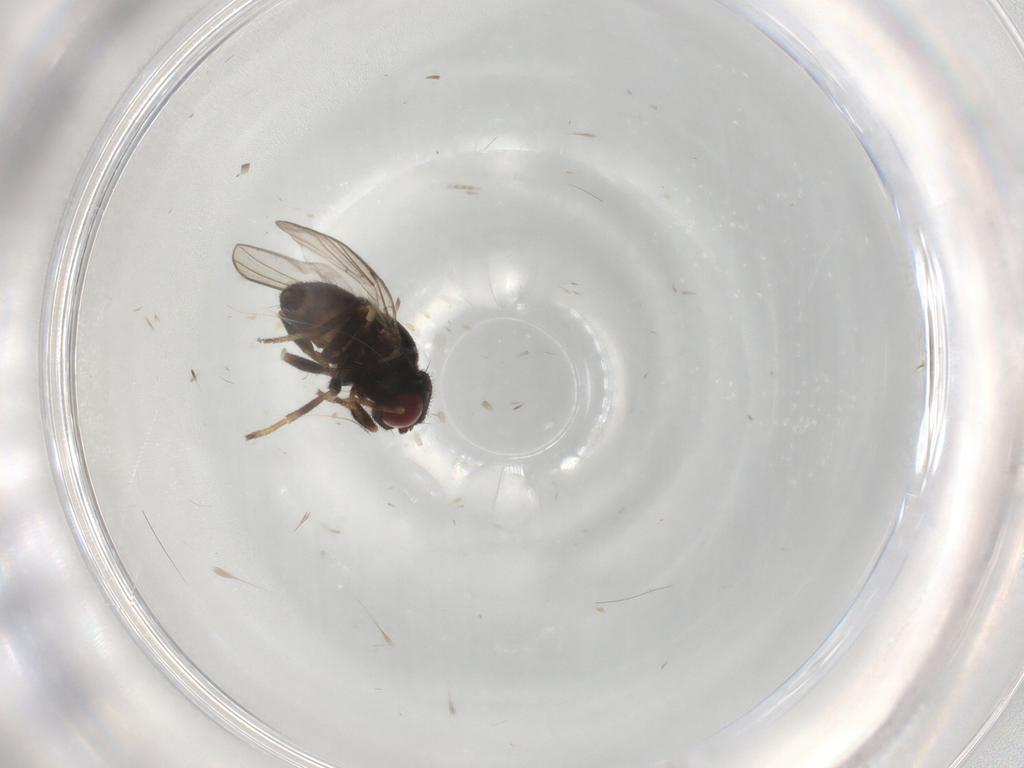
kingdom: Animalia
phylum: Arthropoda
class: Insecta
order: Diptera
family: Chloropidae
